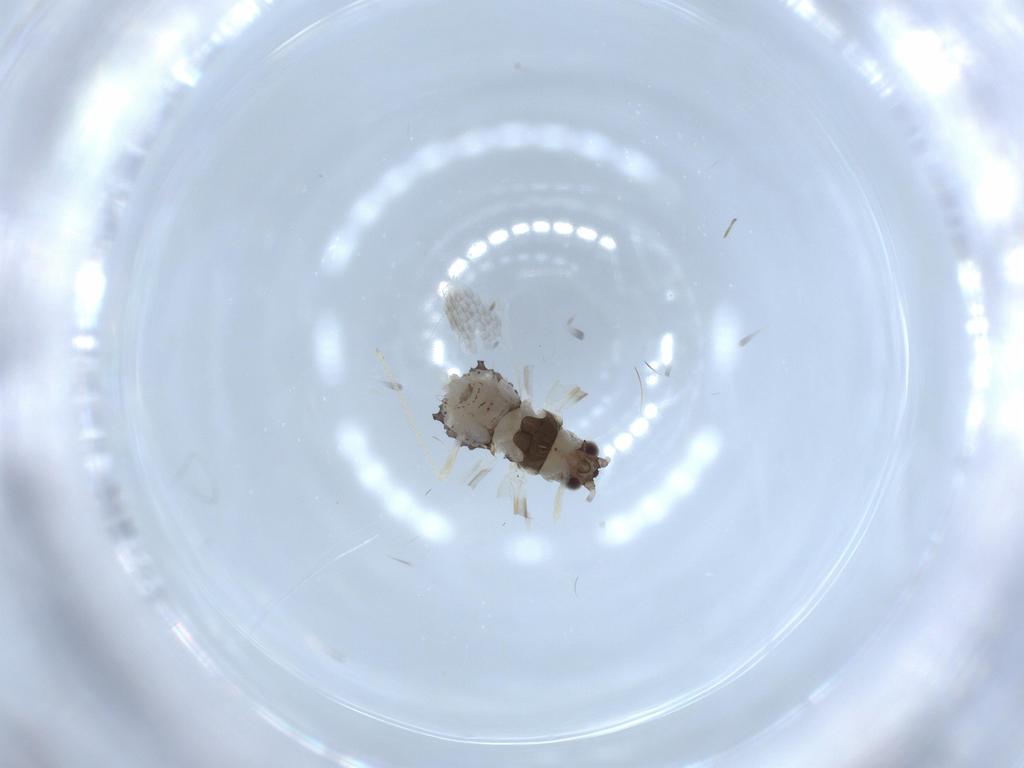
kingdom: Animalia
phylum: Arthropoda
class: Insecta
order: Hemiptera
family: Aphididae
